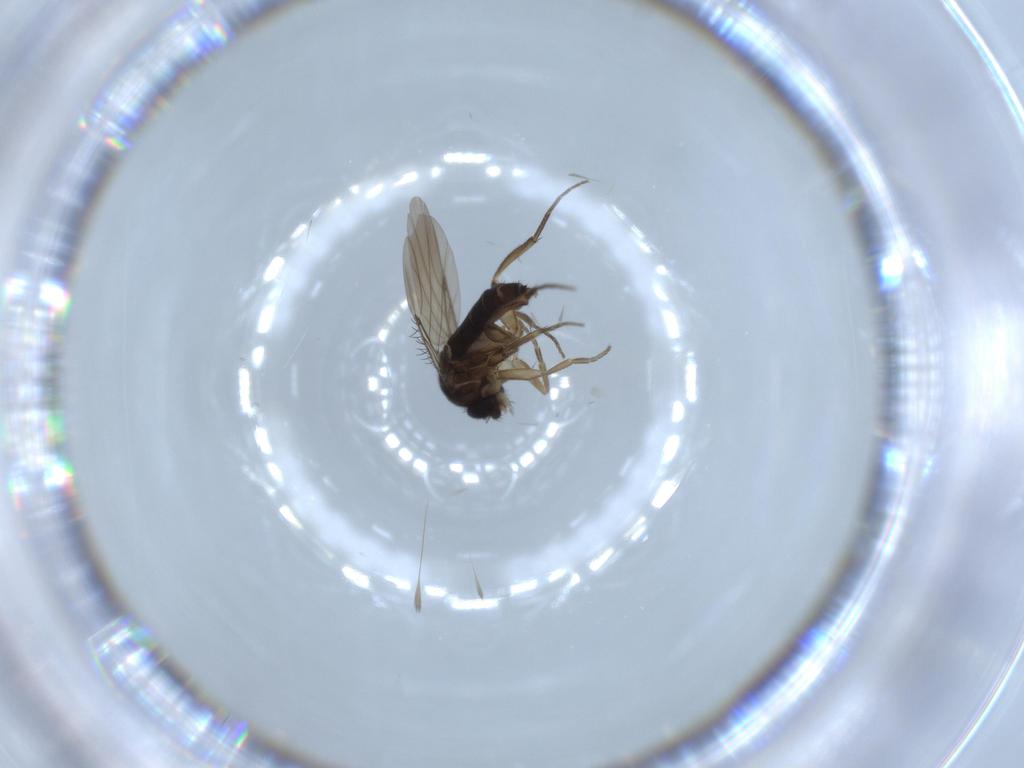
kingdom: Animalia
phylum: Arthropoda
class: Insecta
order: Diptera
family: Phoridae
